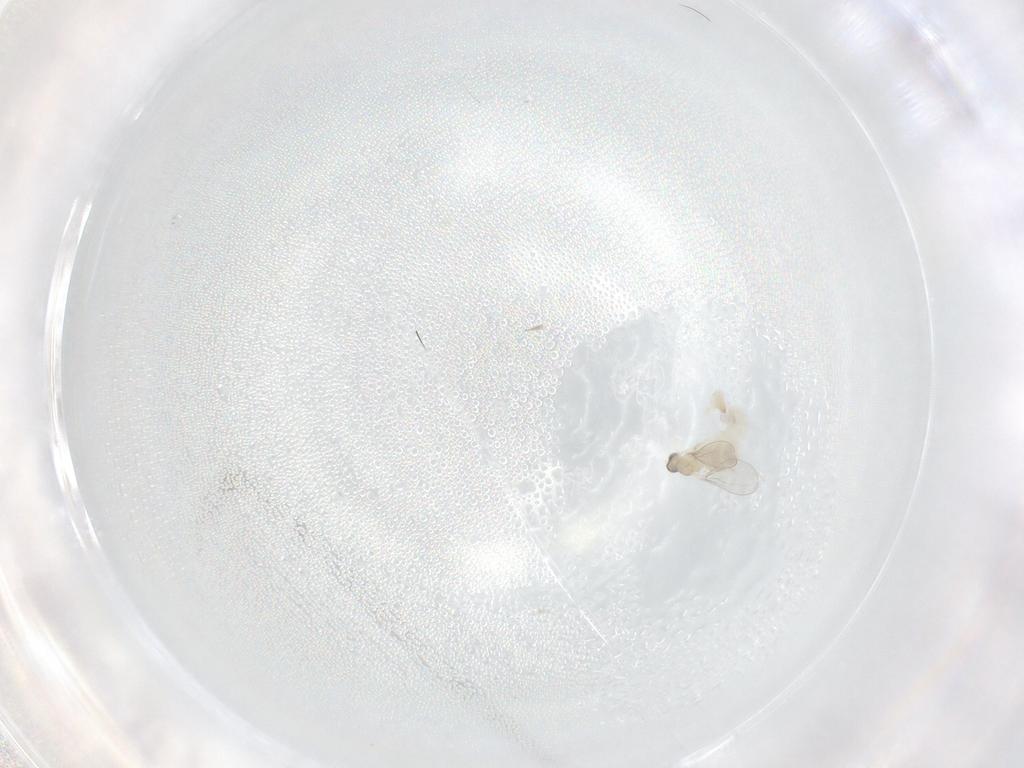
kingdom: Animalia
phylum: Arthropoda
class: Insecta
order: Diptera
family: Cecidomyiidae
